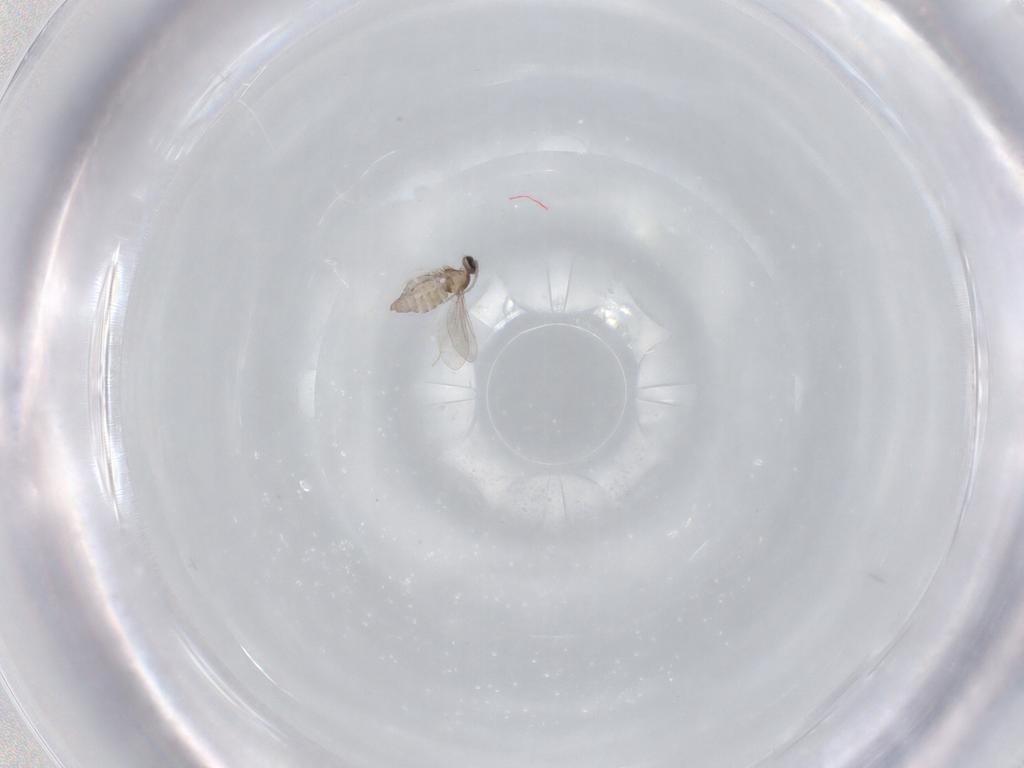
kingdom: Animalia
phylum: Arthropoda
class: Insecta
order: Diptera
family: Cecidomyiidae
